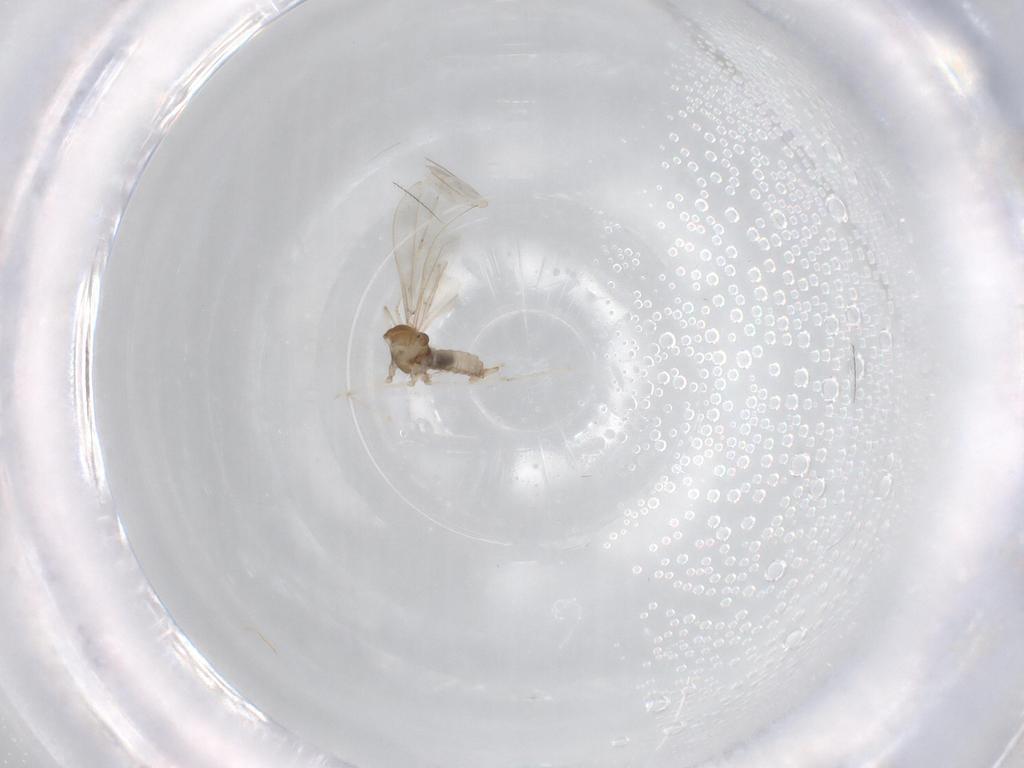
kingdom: Animalia
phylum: Arthropoda
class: Insecta
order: Diptera
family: Cecidomyiidae
